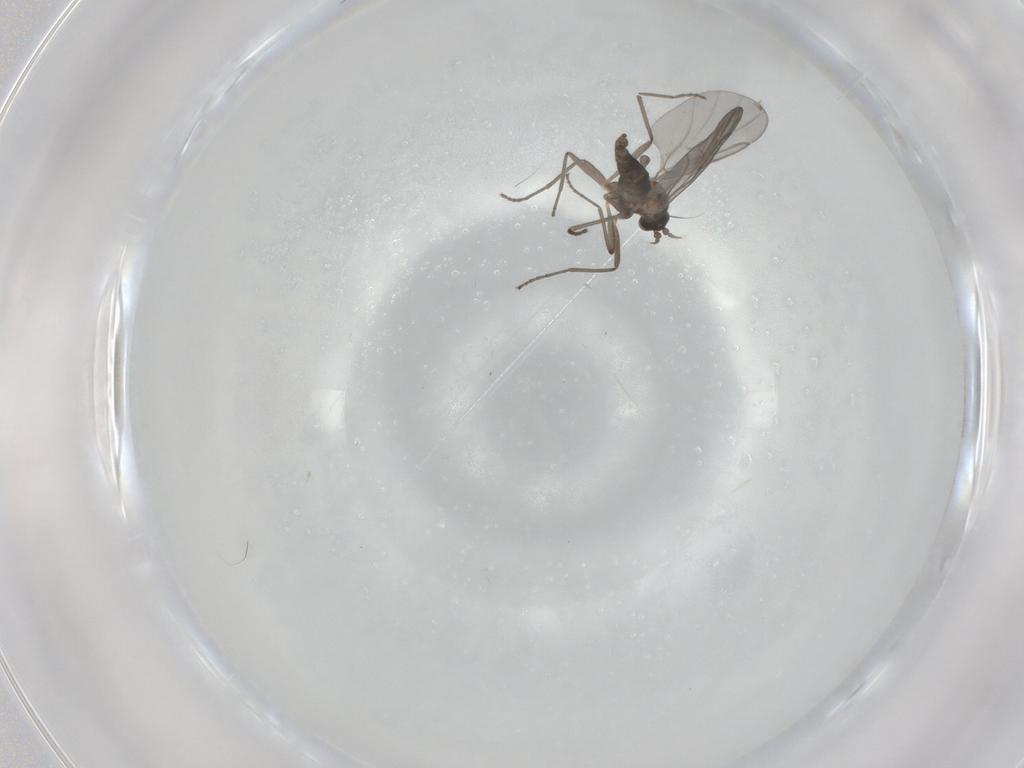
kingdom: Animalia
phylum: Arthropoda
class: Insecta
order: Diptera
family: Cecidomyiidae
